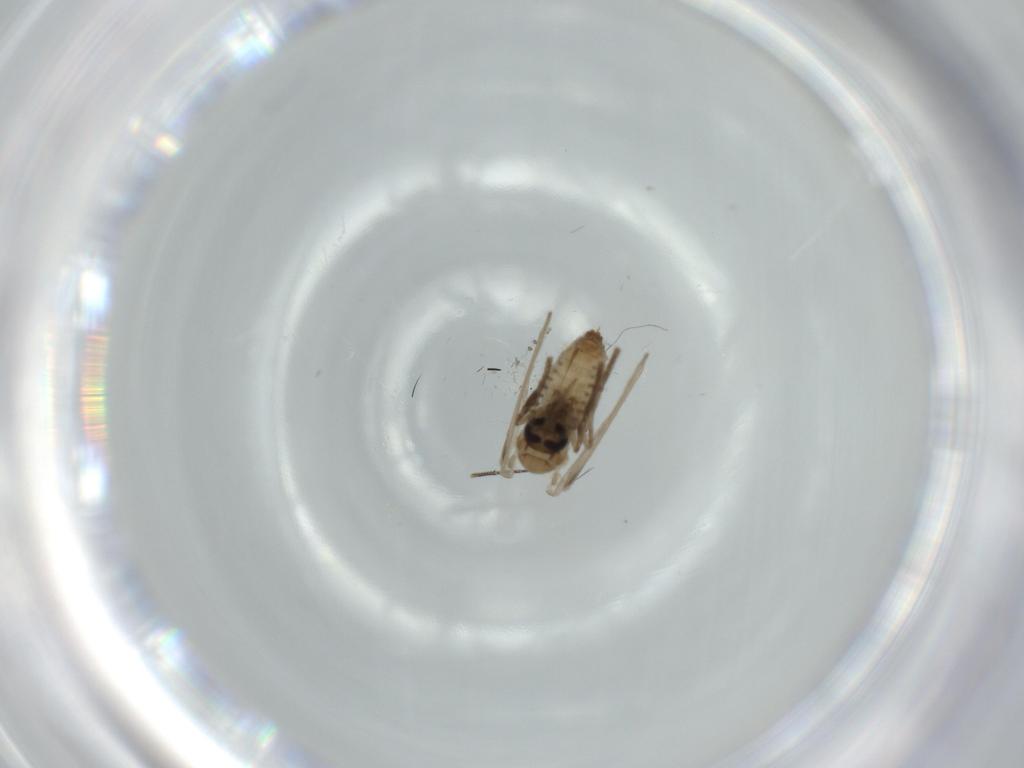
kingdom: Animalia
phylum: Arthropoda
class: Insecta
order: Diptera
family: Psychodidae
